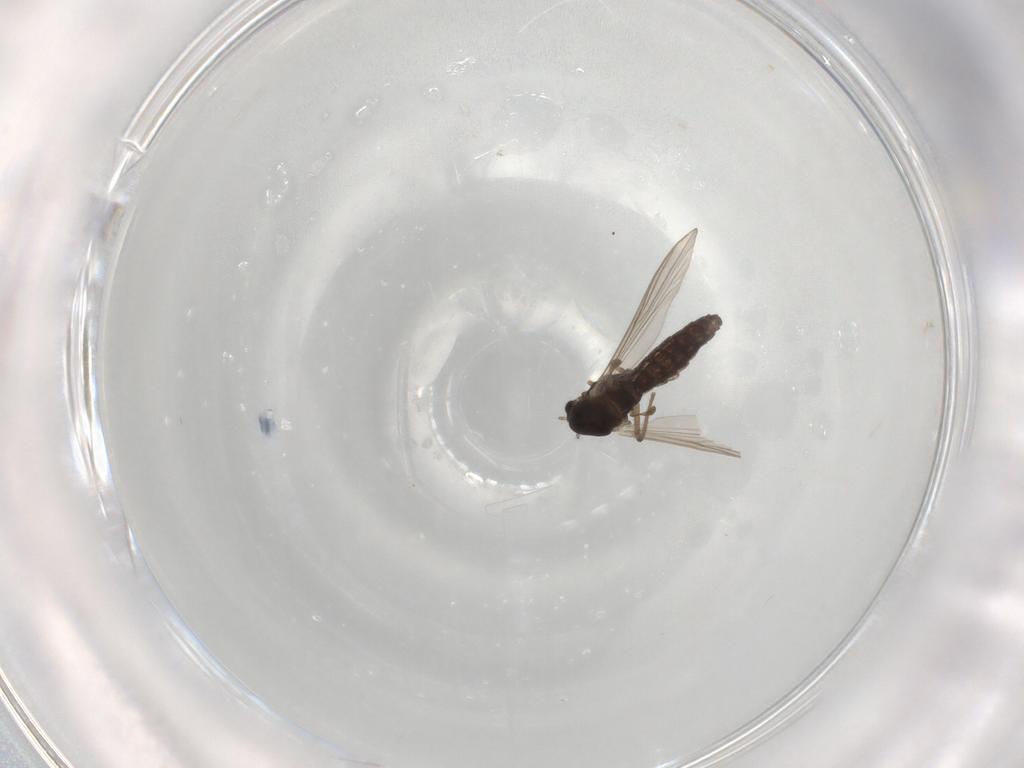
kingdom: Animalia
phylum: Arthropoda
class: Insecta
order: Diptera
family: Chironomidae
